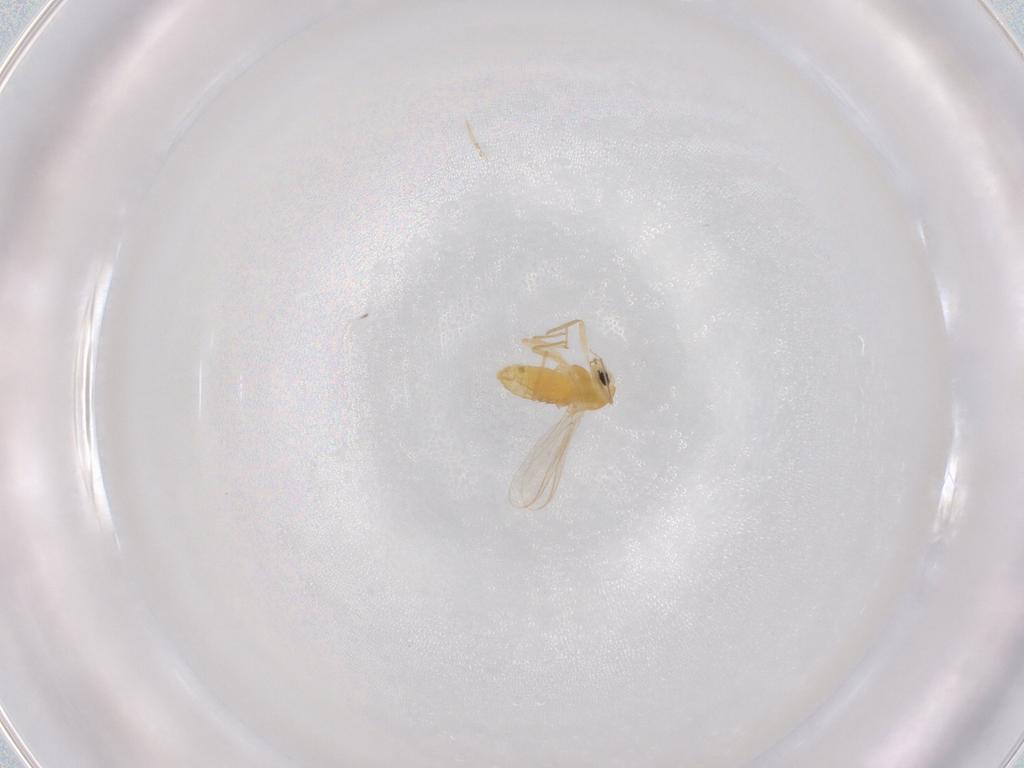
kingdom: Animalia
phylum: Arthropoda
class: Insecta
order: Diptera
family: Chironomidae
